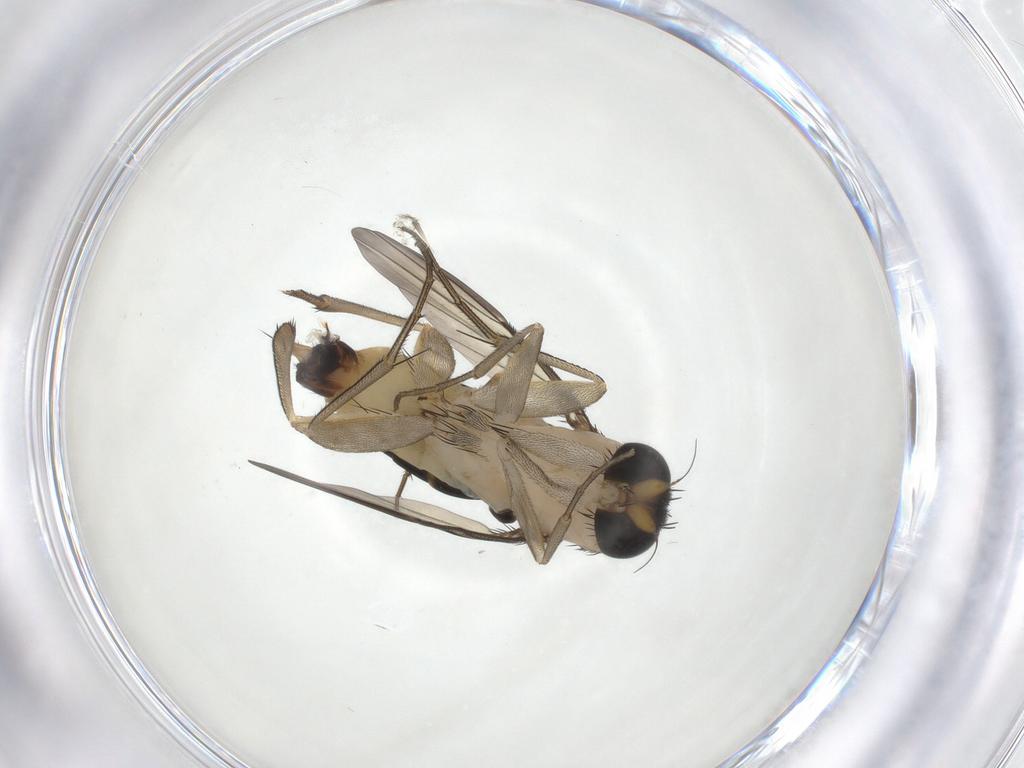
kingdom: Animalia
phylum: Arthropoda
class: Insecta
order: Diptera
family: Phoridae
